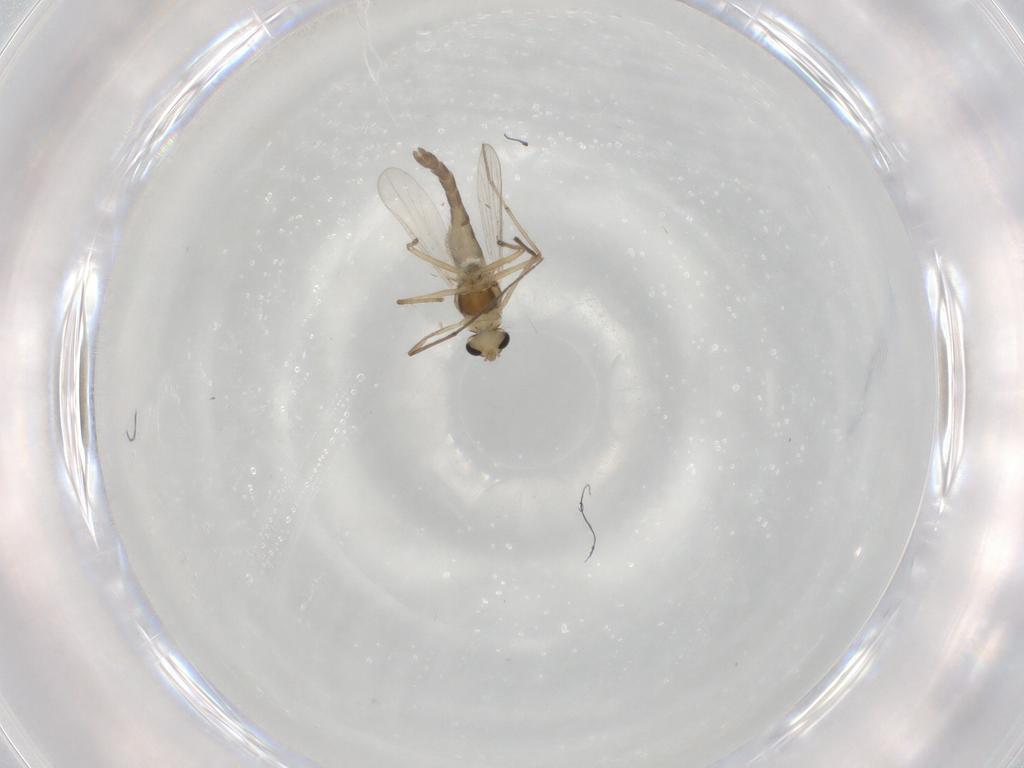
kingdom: Animalia
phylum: Arthropoda
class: Insecta
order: Diptera
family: Chironomidae
